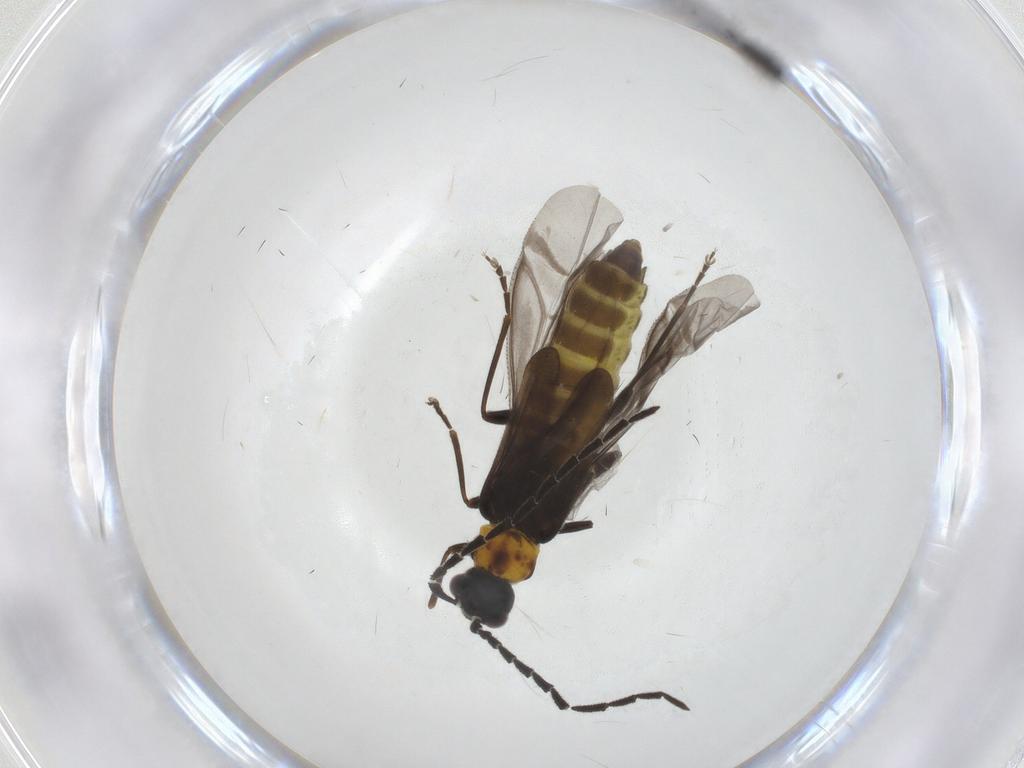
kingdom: Animalia
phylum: Arthropoda
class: Insecta
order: Coleoptera
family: Cantharidae
